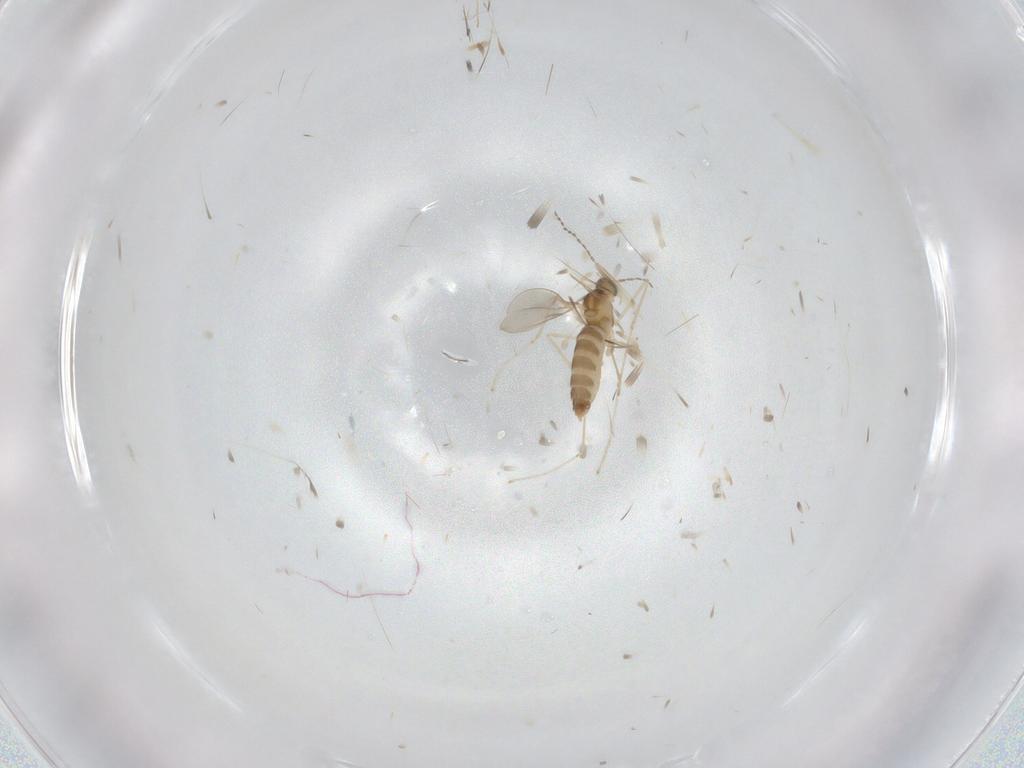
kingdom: Animalia
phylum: Arthropoda
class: Insecta
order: Diptera
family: Cecidomyiidae
